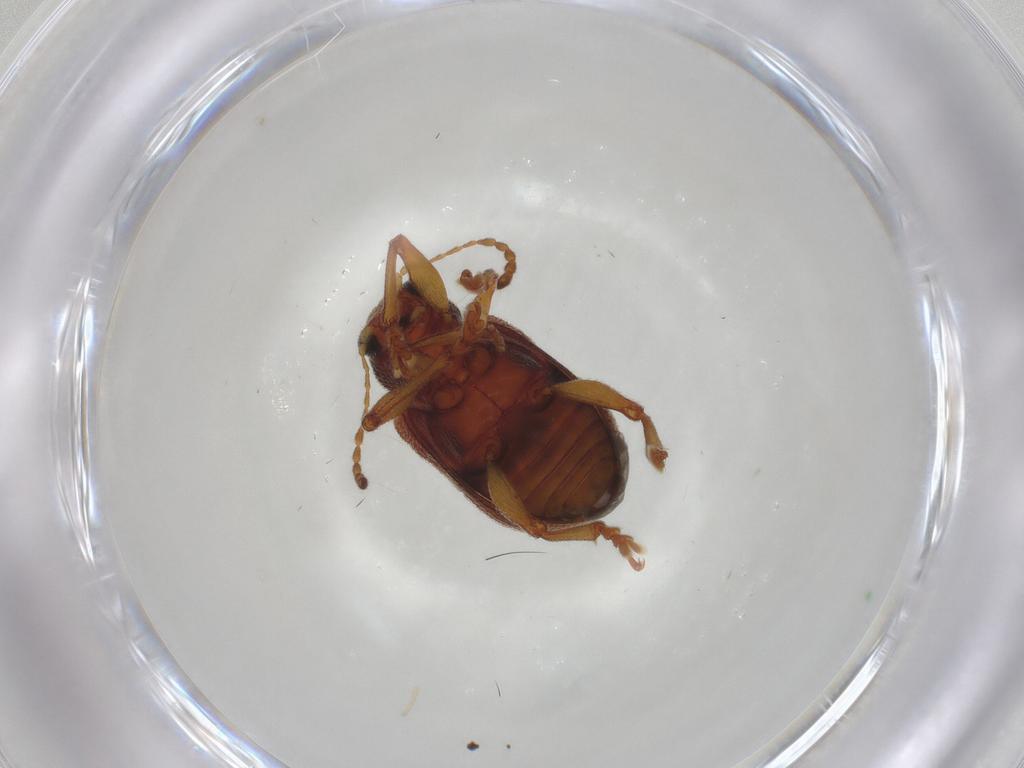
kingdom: Animalia
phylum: Arthropoda
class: Insecta
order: Coleoptera
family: Chrysomelidae
